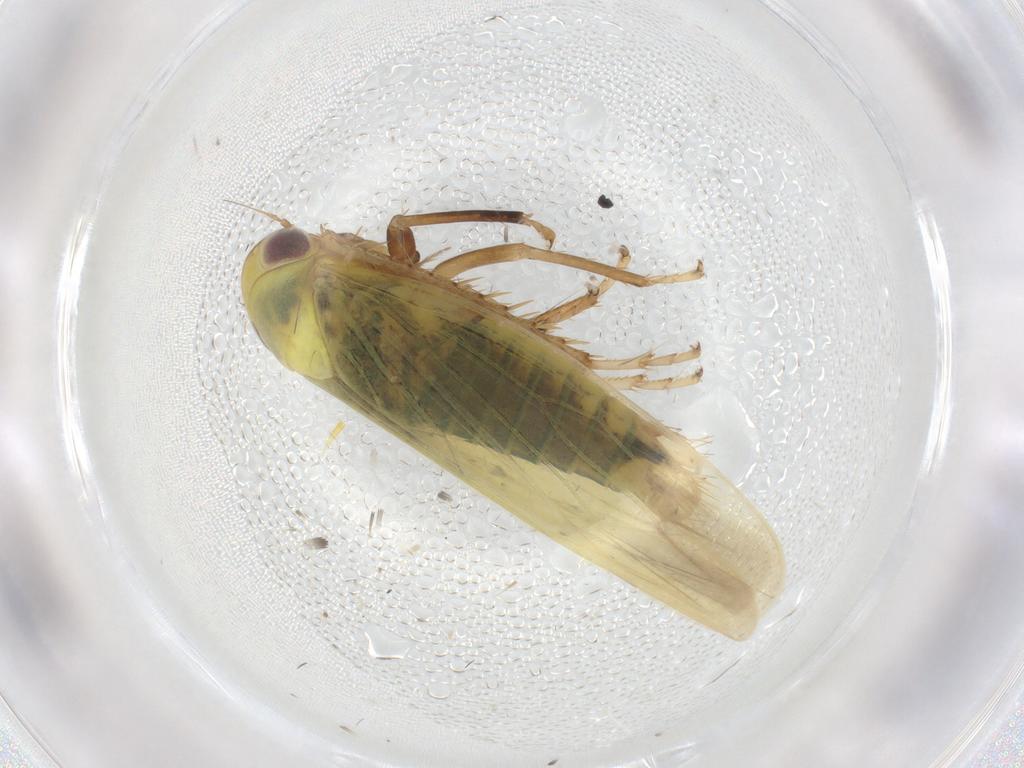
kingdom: Animalia
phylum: Arthropoda
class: Insecta
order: Hemiptera
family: Cicadellidae
